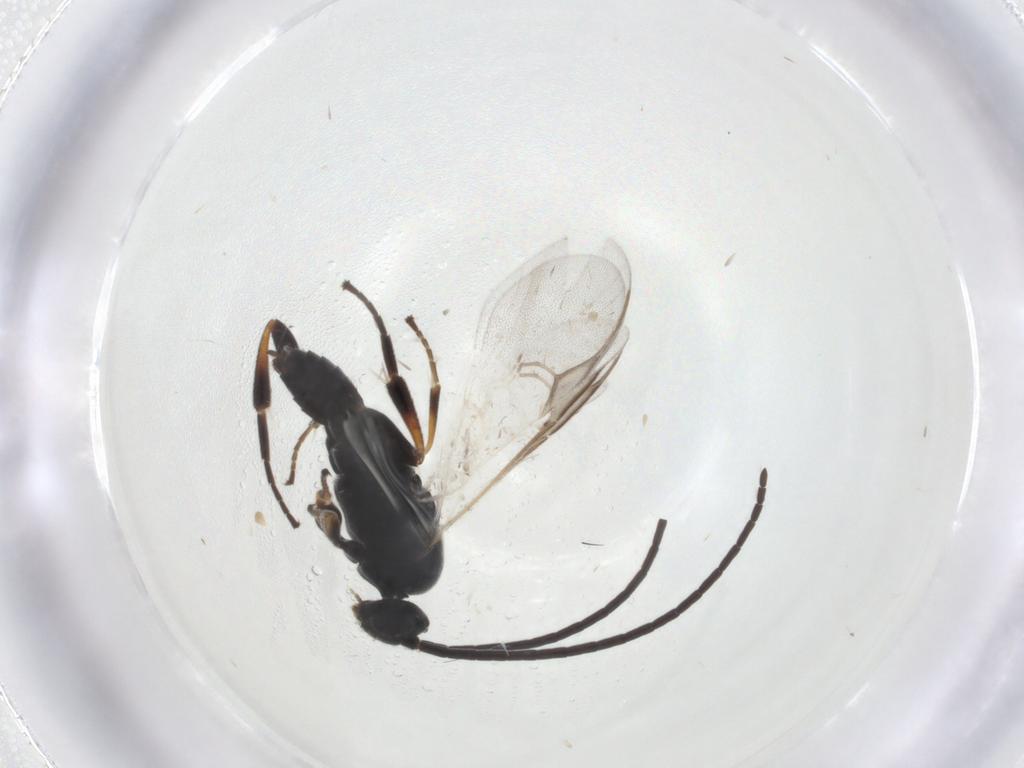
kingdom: Animalia
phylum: Arthropoda
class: Insecta
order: Hymenoptera
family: Braconidae
